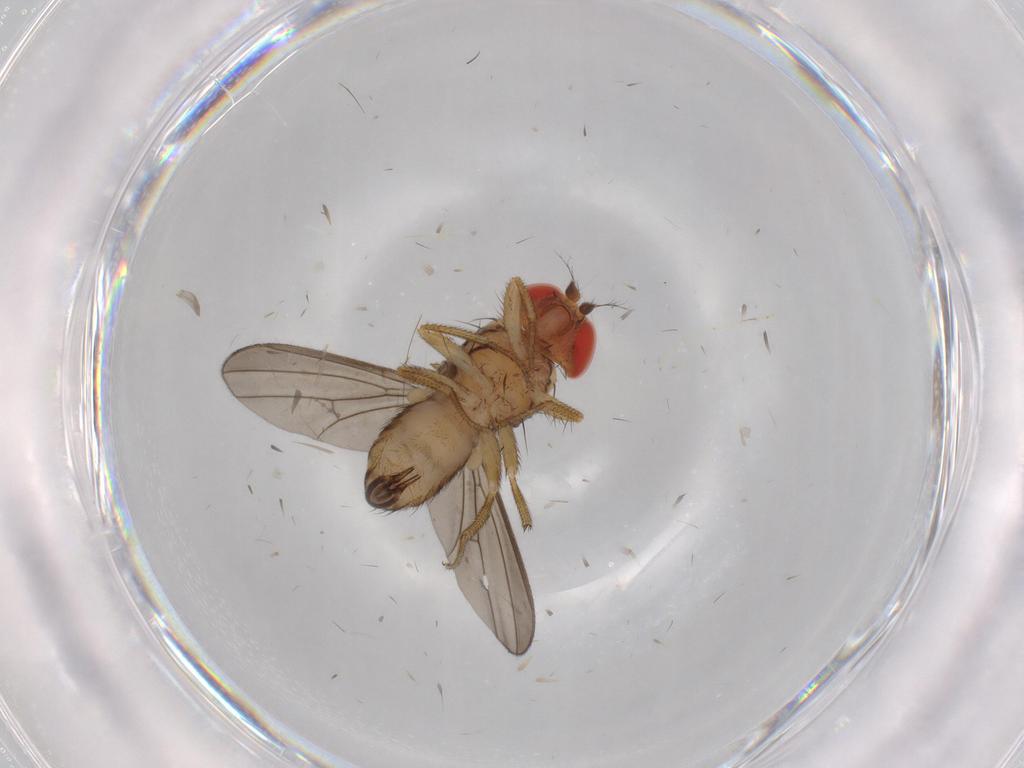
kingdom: Animalia
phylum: Arthropoda
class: Insecta
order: Diptera
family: Drosophilidae
